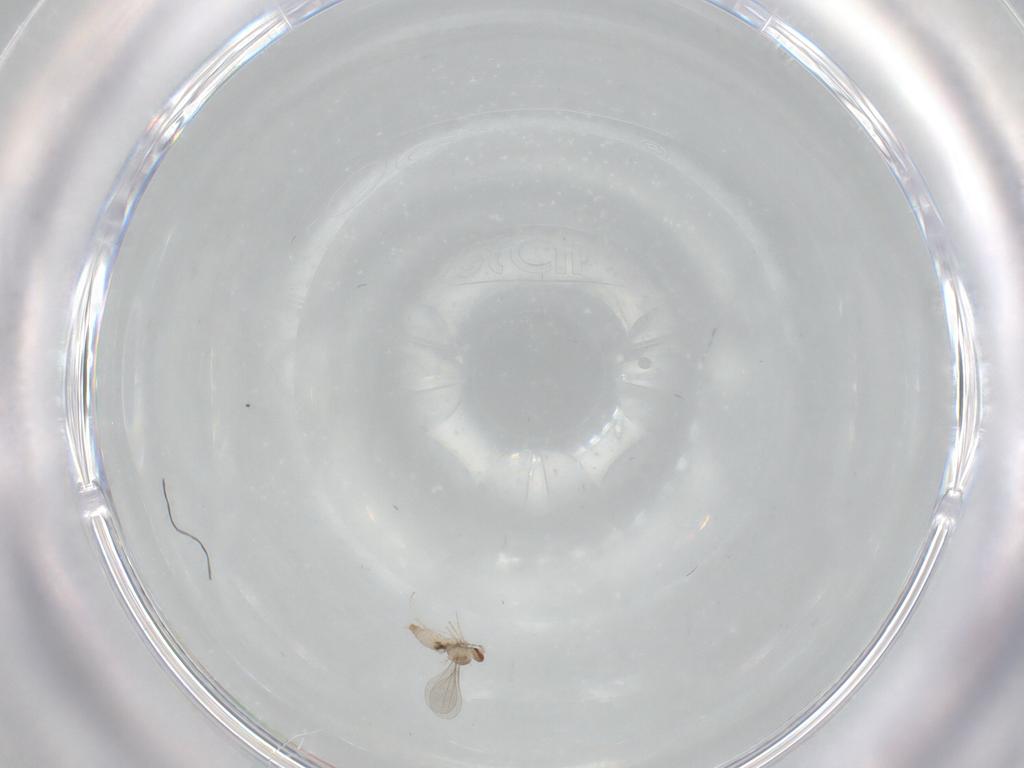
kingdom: Animalia
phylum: Arthropoda
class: Insecta
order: Diptera
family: Cecidomyiidae
